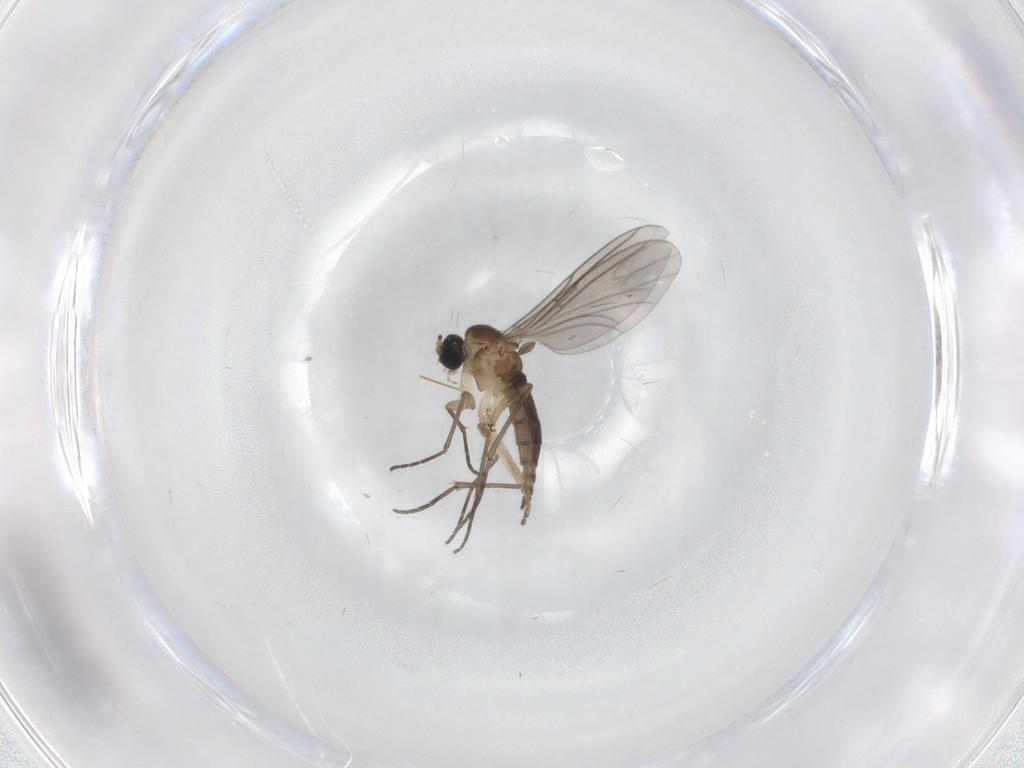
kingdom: Animalia
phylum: Arthropoda
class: Insecta
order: Diptera
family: Sciaridae
